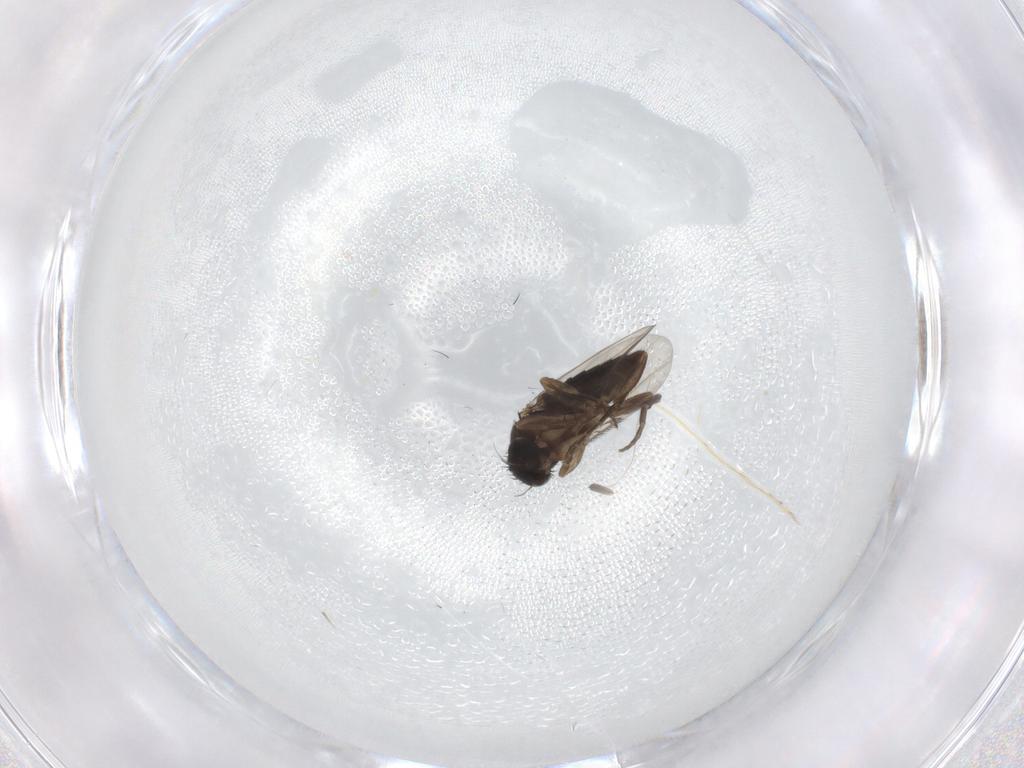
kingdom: Animalia
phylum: Arthropoda
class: Insecta
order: Diptera
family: Phoridae
